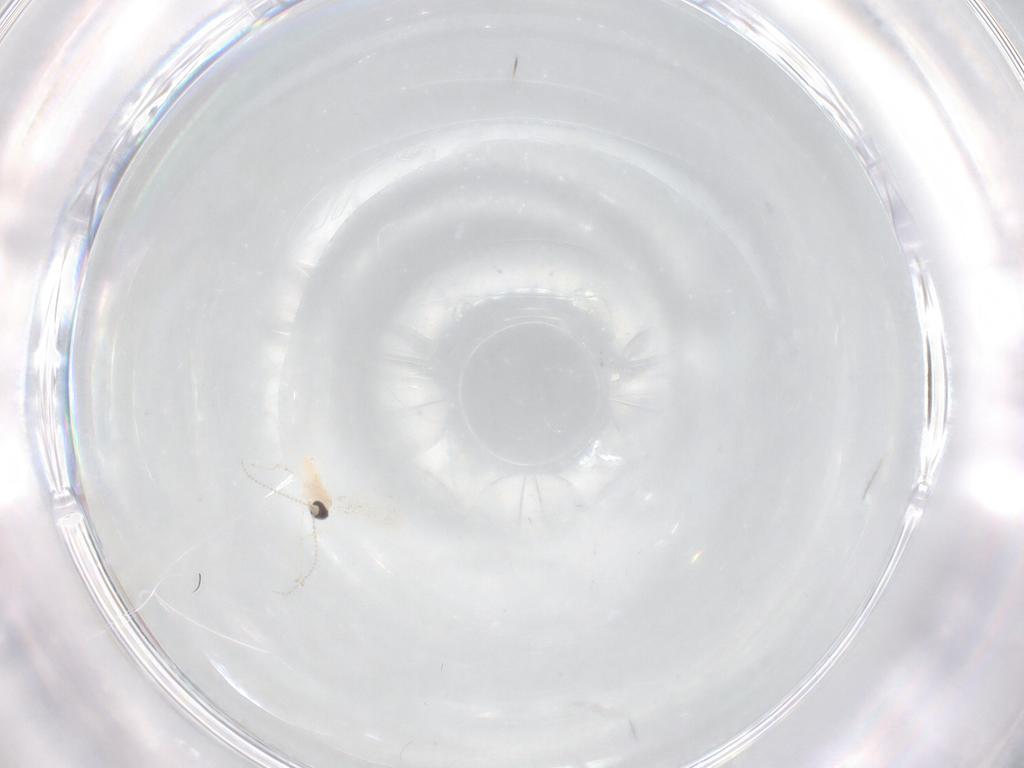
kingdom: Animalia
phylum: Arthropoda
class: Insecta
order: Diptera
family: Cecidomyiidae
